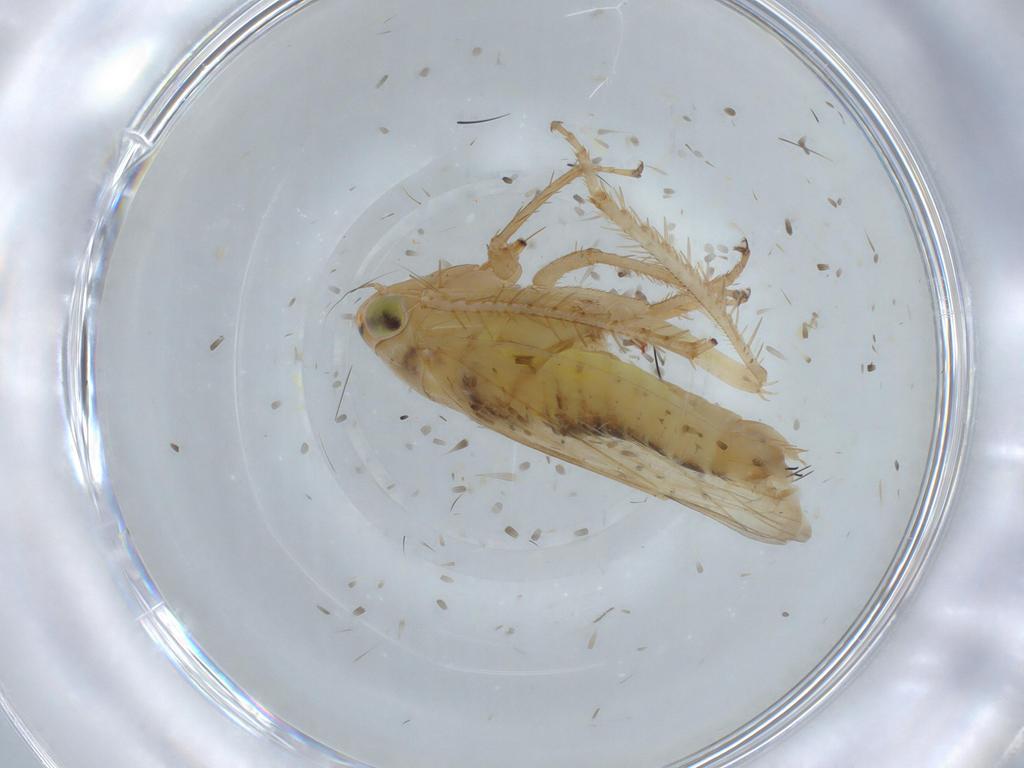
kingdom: Animalia
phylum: Arthropoda
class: Insecta
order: Hemiptera
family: Cicadellidae
